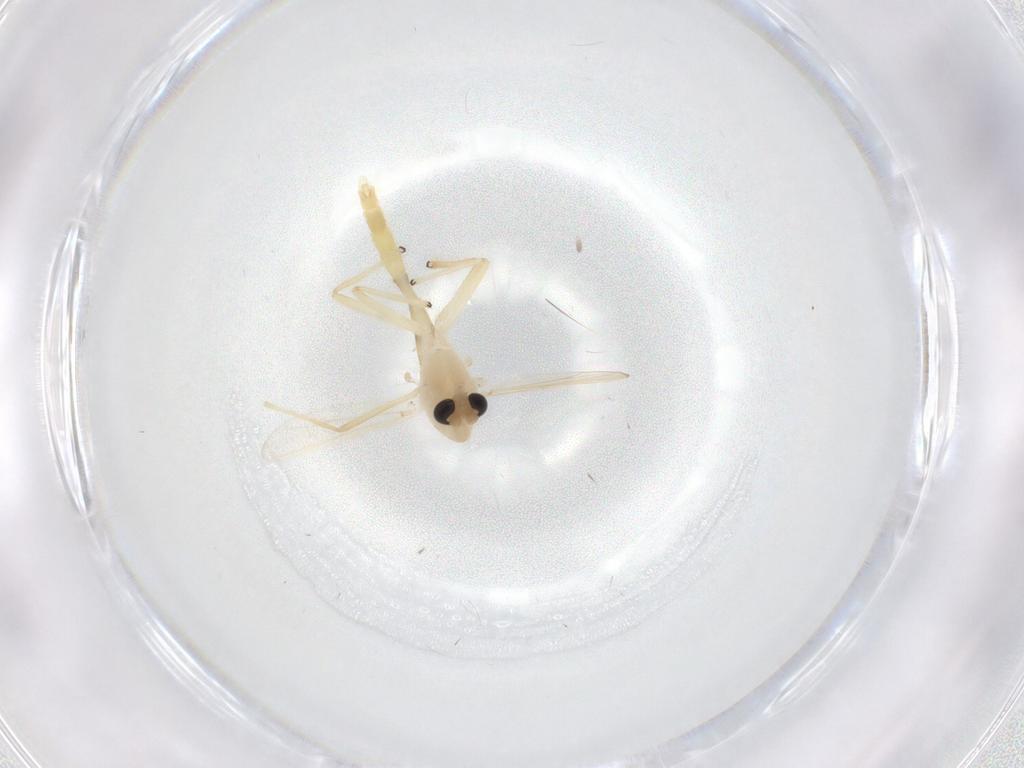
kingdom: Animalia
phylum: Arthropoda
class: Insecta
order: Diptera
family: Chironomidae
